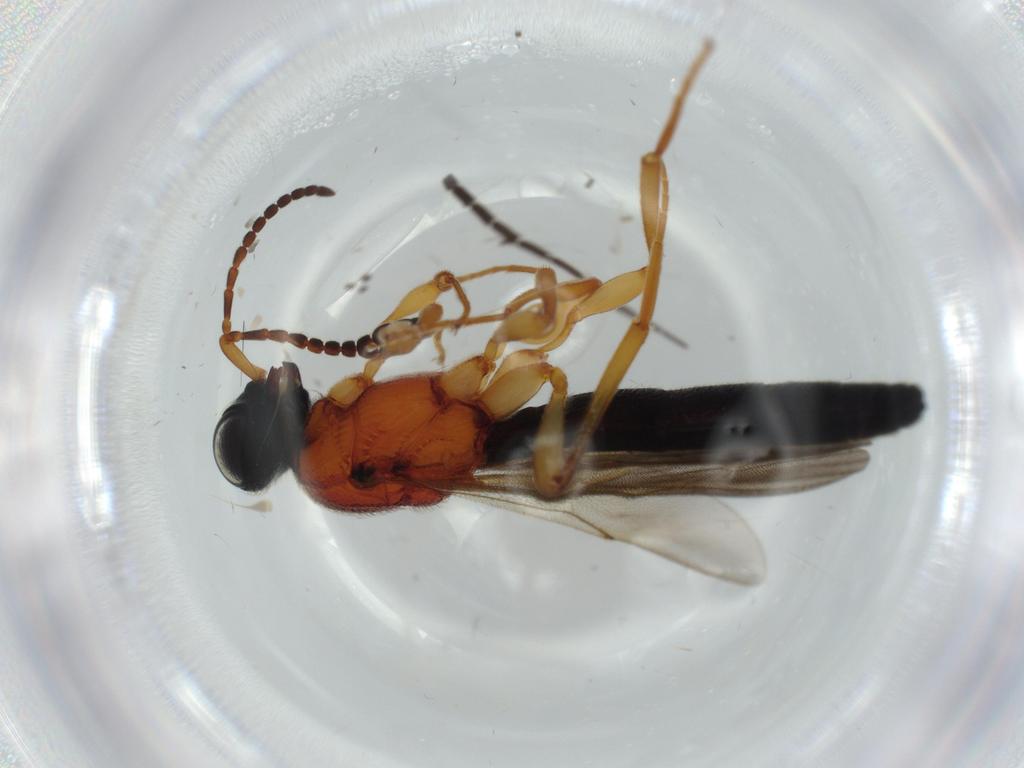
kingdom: Animalia
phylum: Arthropoda
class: Insecta
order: Hymenoptera
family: Scelionidae
